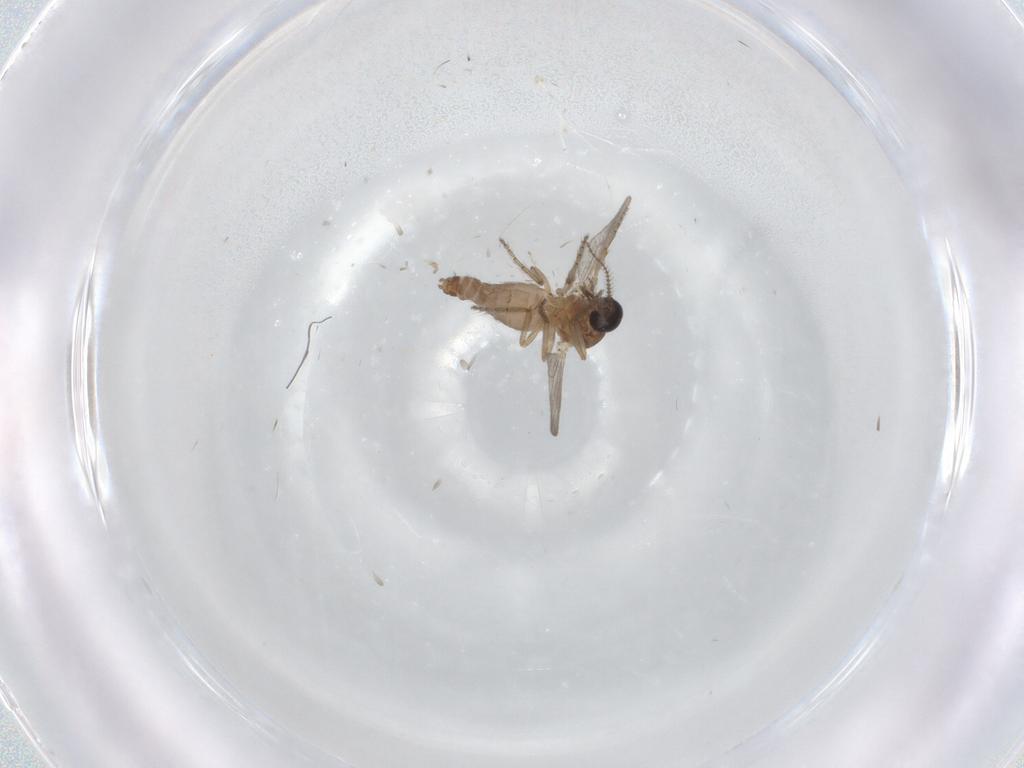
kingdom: Animalia
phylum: Arthropoda
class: Insecta
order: Diptera
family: Ceratopogonidae
